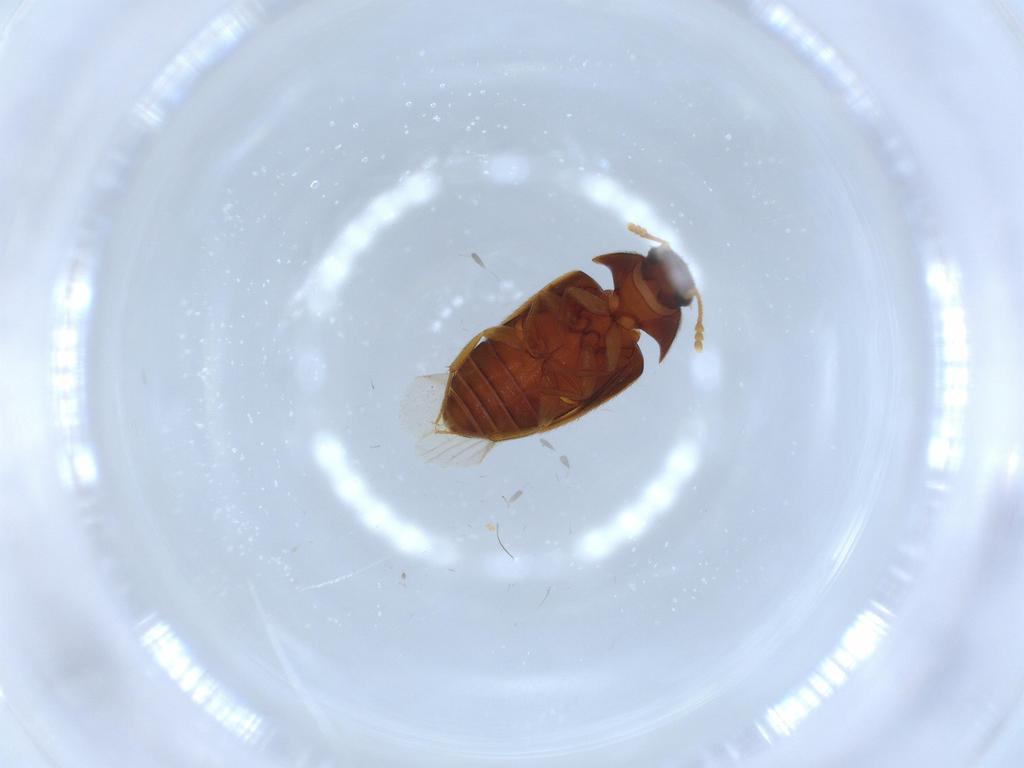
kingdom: Animalia
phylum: Arthropoda
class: Insecta
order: Coleoptera
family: Mycetophagidae
